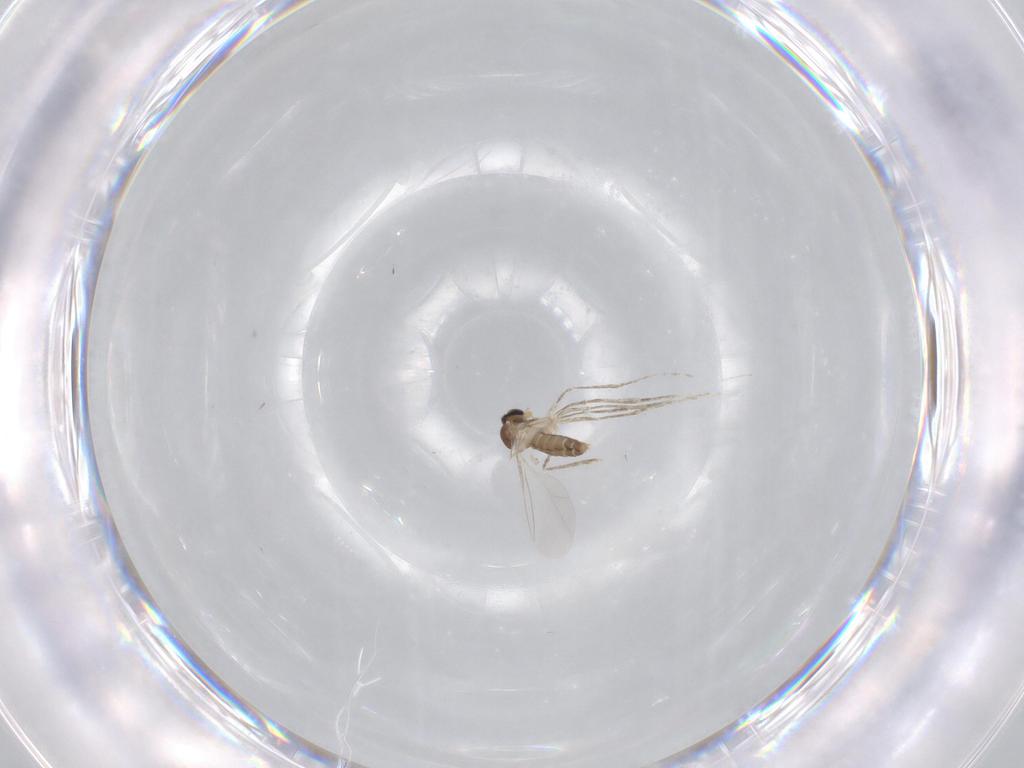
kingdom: Animalia
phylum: Arthropoda
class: Insecta
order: Diptera
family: Cecidomyiidae
